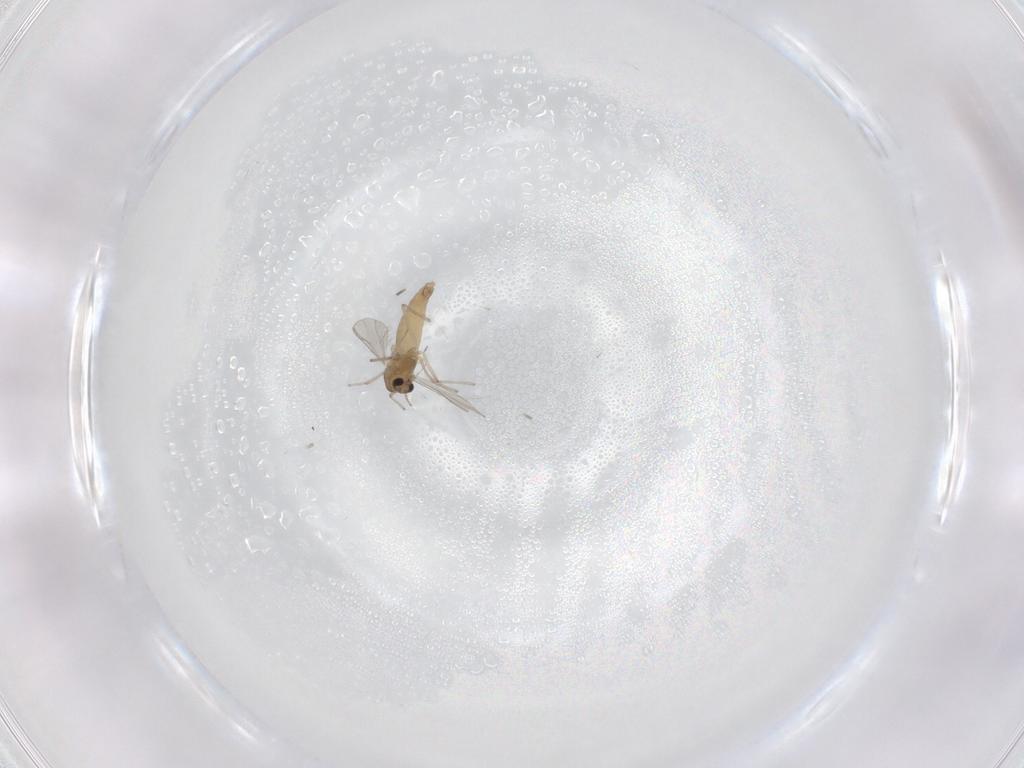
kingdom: Animalia
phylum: Arthropoda
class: Insecta
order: Diptera
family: Chironomidae
